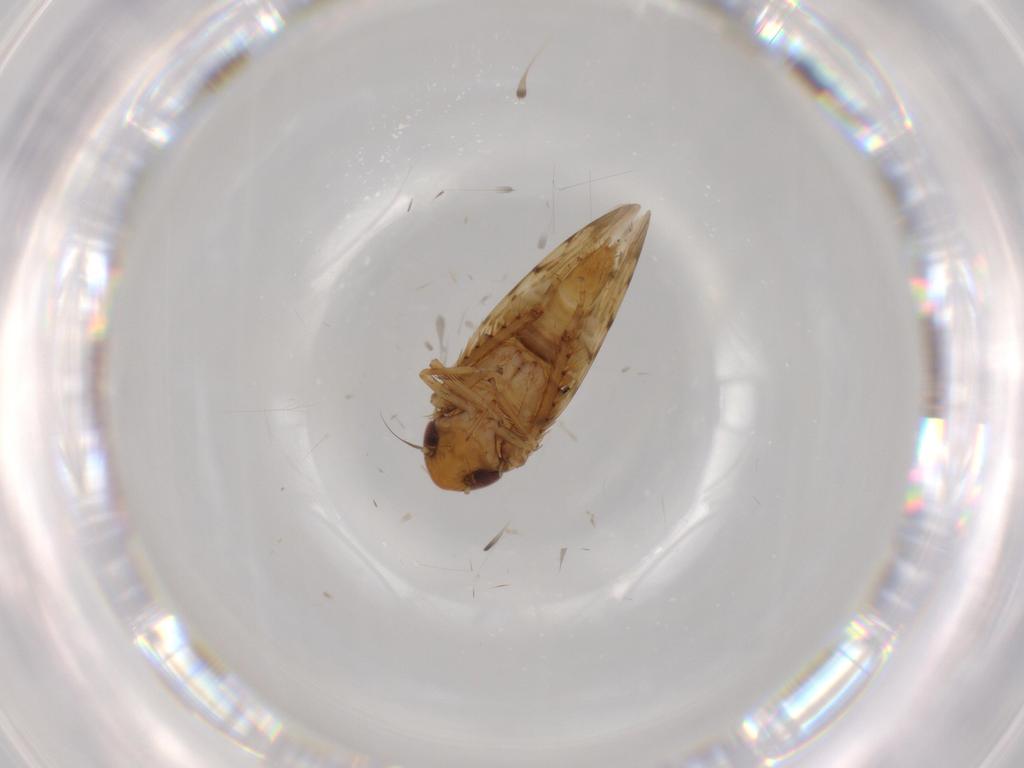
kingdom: Animalia
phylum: Arthropoda
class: Insecta
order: Hemiptera
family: Cicadellidae
